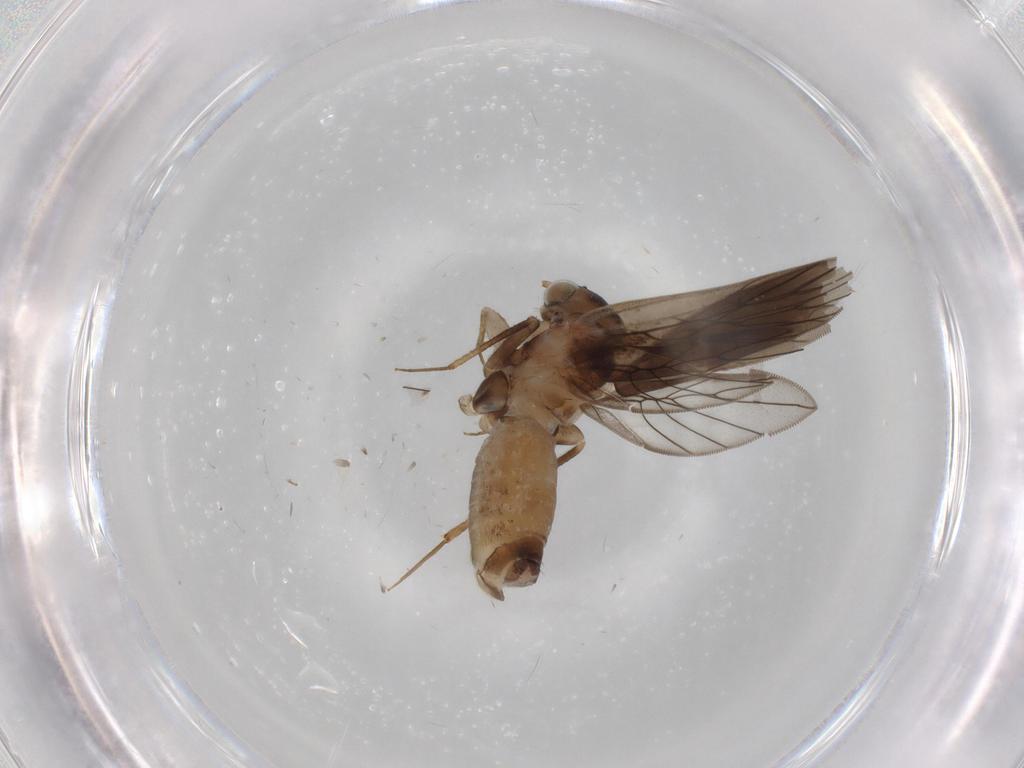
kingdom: Animalia
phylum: Arthropoda
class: Insecta
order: Psocodea
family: Lepidopsocidae
